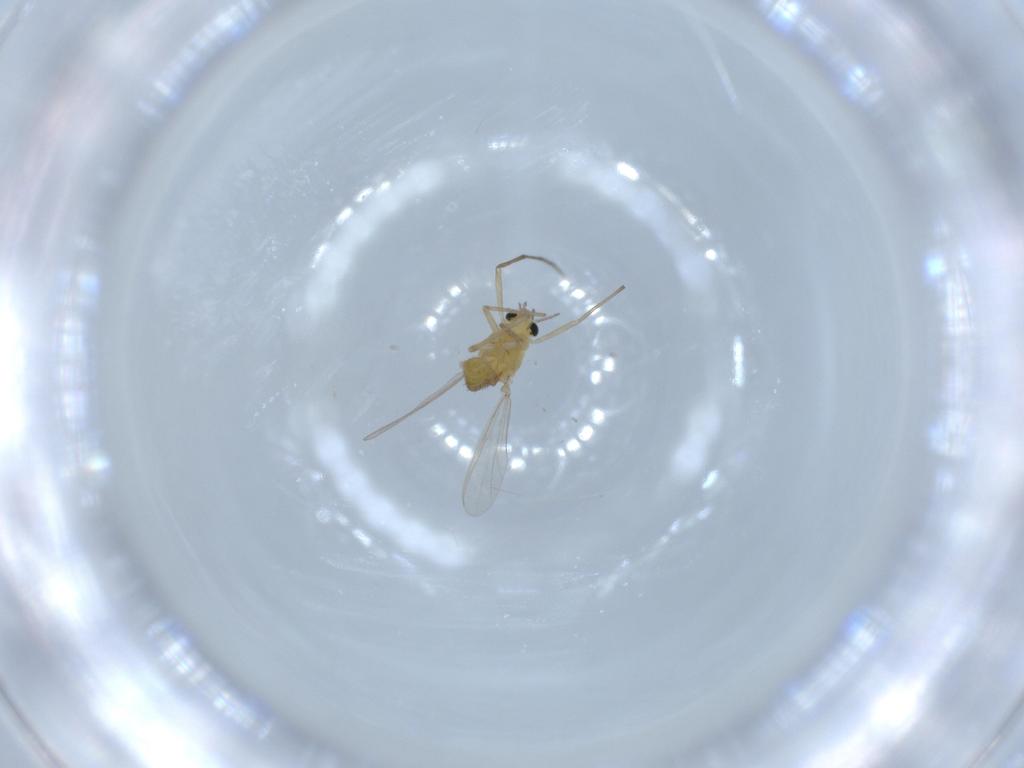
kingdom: Animalia
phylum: Arthropoda
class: Insecta
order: Diptera
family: Chironomidae
